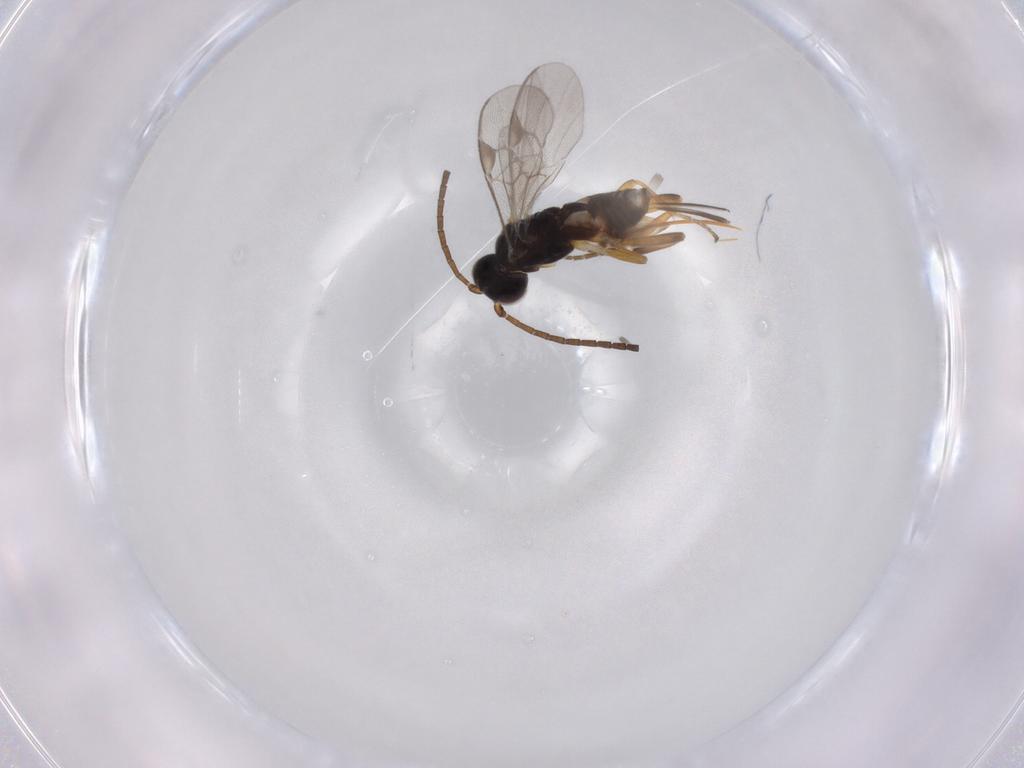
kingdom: Animalia
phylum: Arthropoda
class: Insecta
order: Hymenoptera
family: Braconidae
